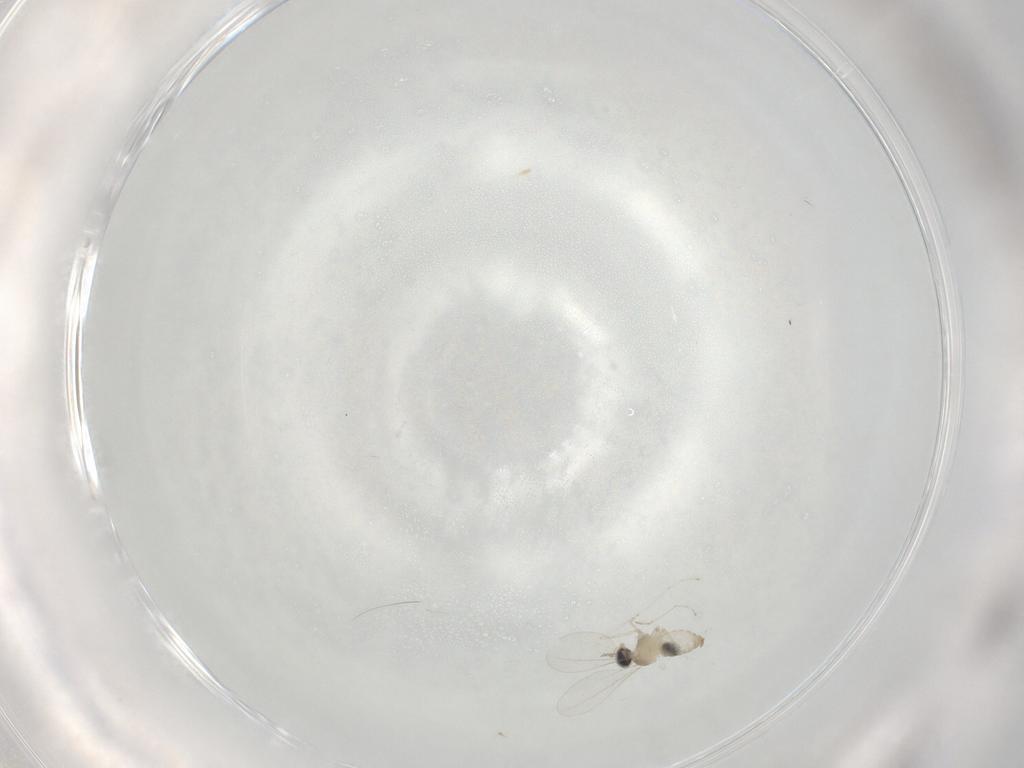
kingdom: Animalia
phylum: Arthropoda
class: Insecta
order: Diptera
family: Cecidomyiidae
